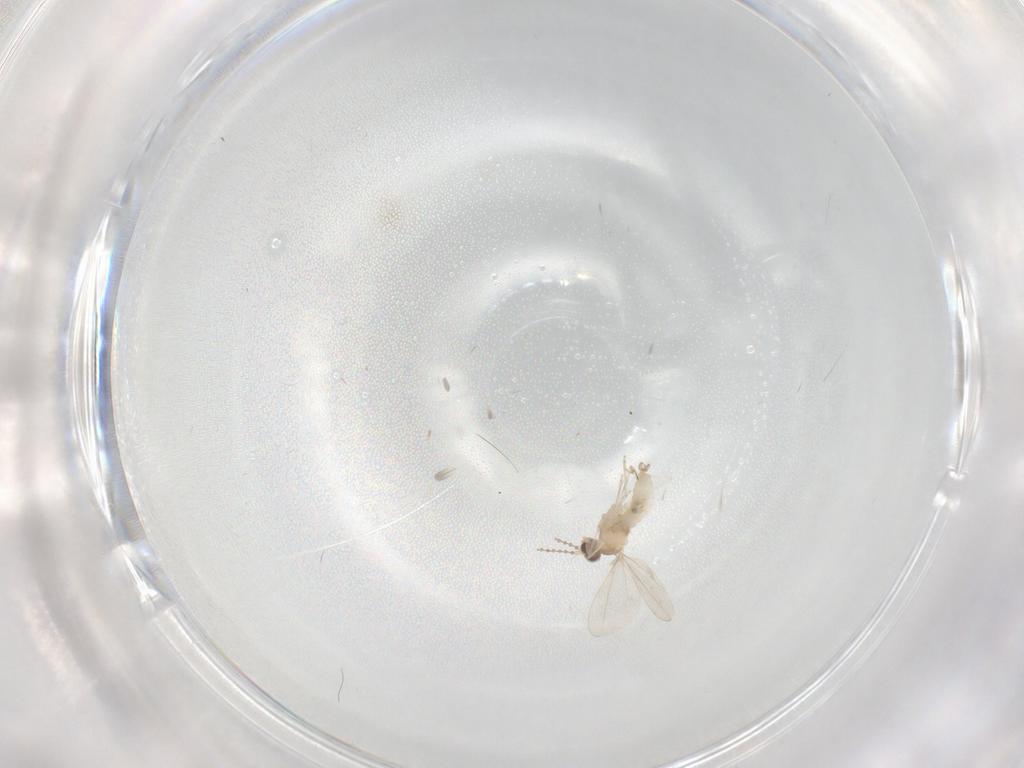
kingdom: Animalia
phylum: Arthropoda
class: Insecta
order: Diptera
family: Cecidomyiidae
